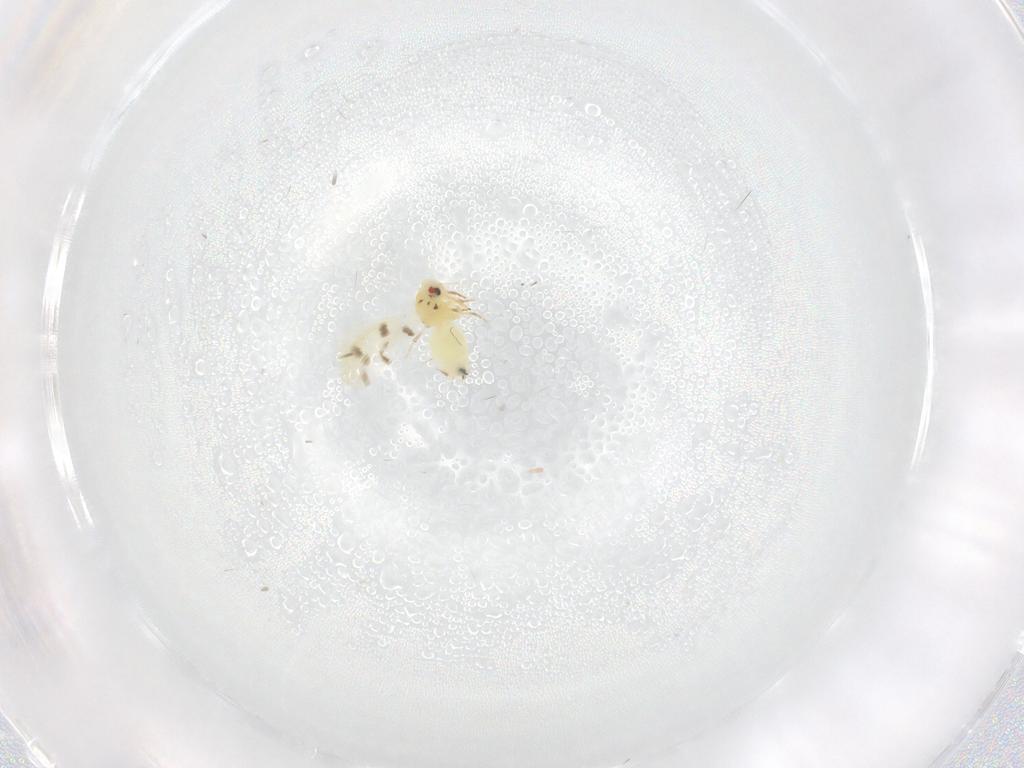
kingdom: Animalia
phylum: Arthropoda
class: Insecta
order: Hemiptera
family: Aleyrodidae
